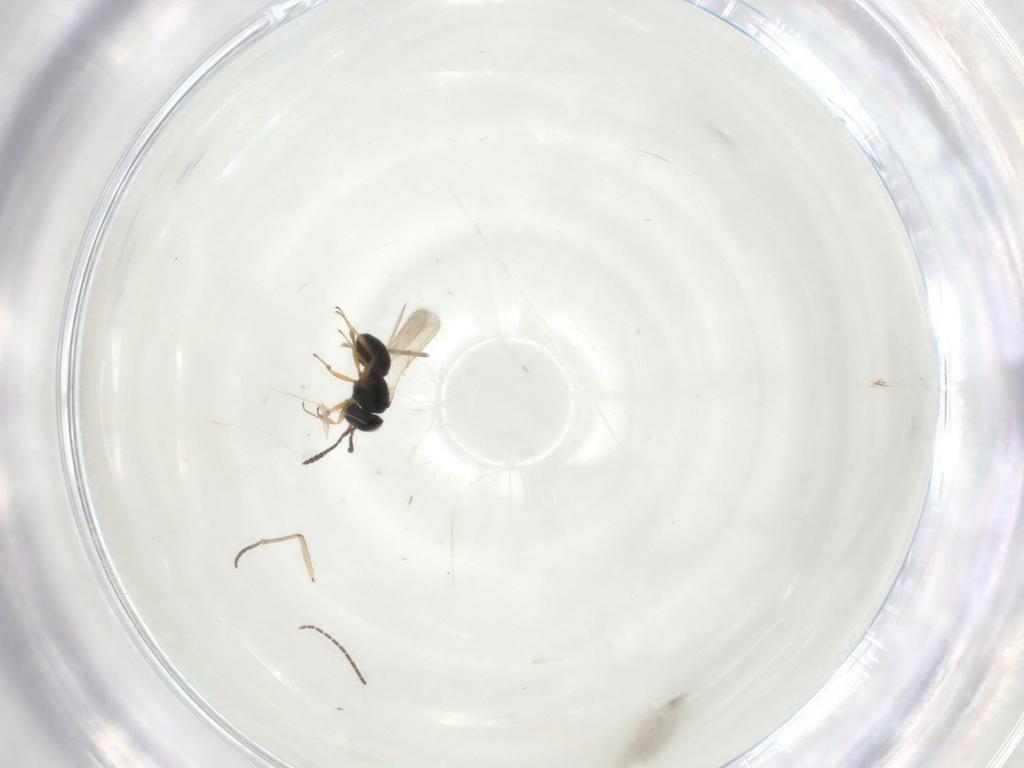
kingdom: Animalia
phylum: Arthropoda
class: Insecta
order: Hymenoptera
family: Scelionidae
